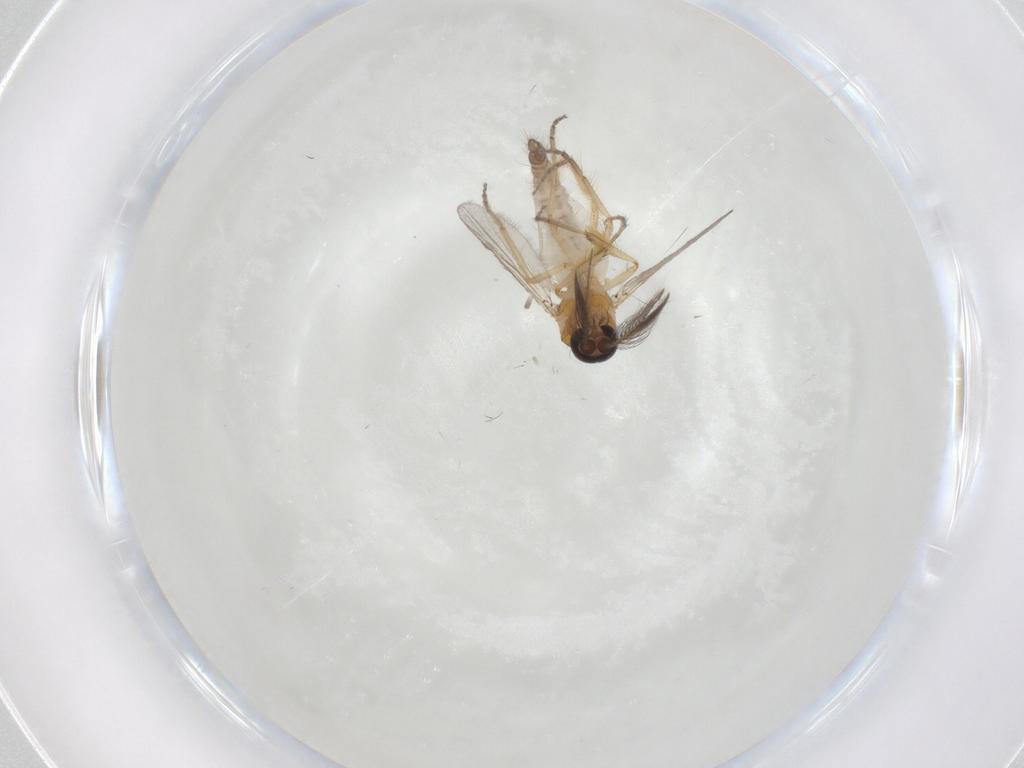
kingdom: Animalia
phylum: Arthropoda
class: Insecta
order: Diptera
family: Ceratopogonidae
